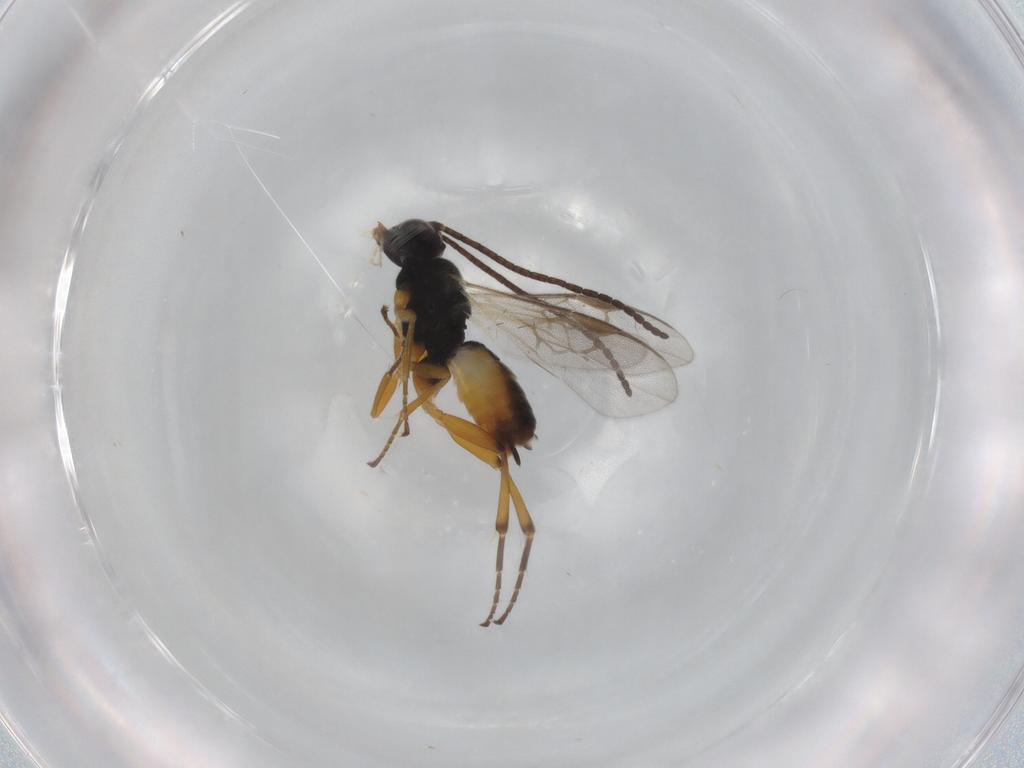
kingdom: Animalia
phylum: Arthropoda
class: Insecta
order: Hymenoptera
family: Braconidae
